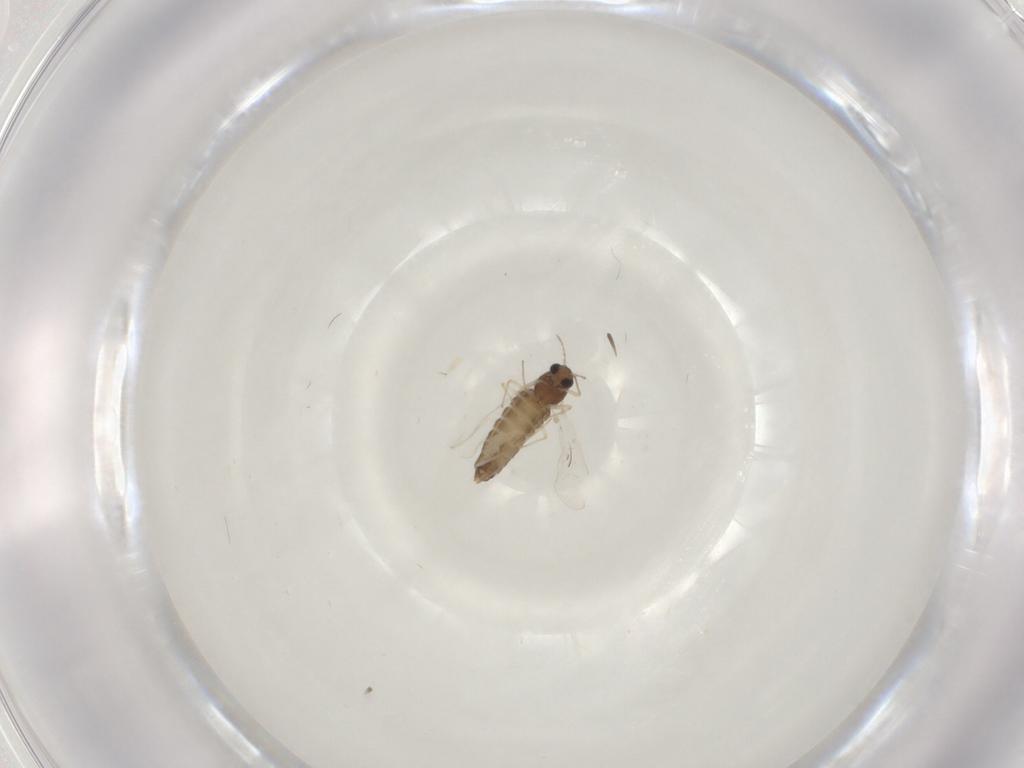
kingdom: Animalia
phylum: Arthropoda
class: Insecta
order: Diptera
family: Chironomidae
